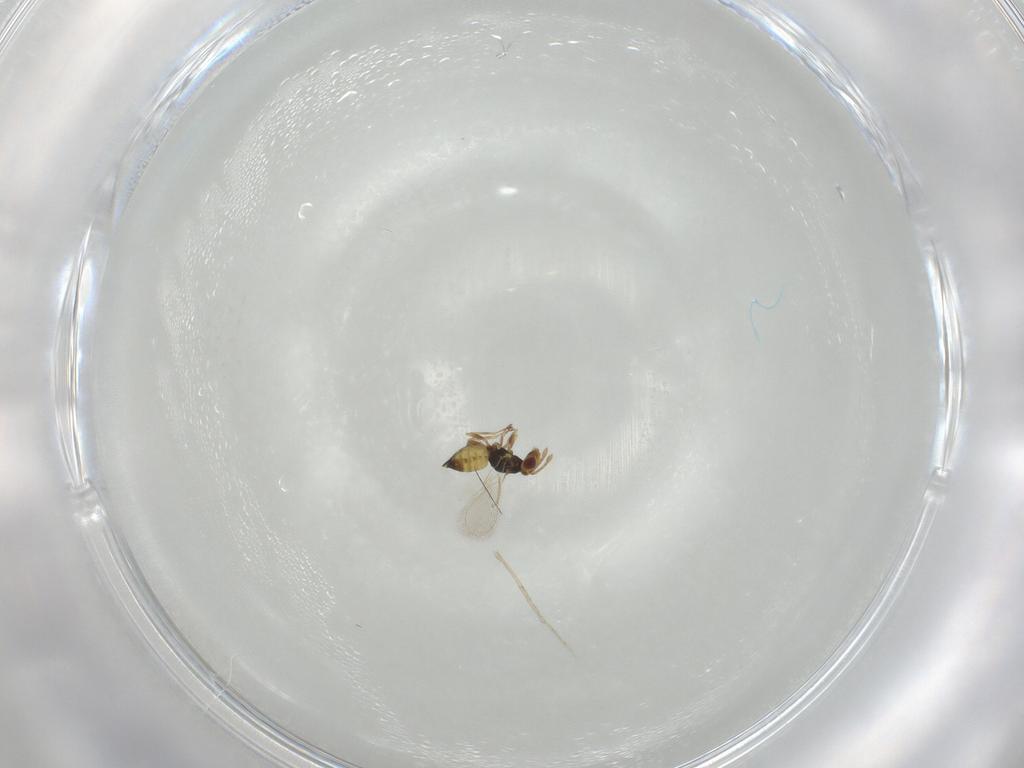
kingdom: Animalia
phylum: Arthropoda
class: Insecta
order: Hymenoptera
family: Eulophidae
